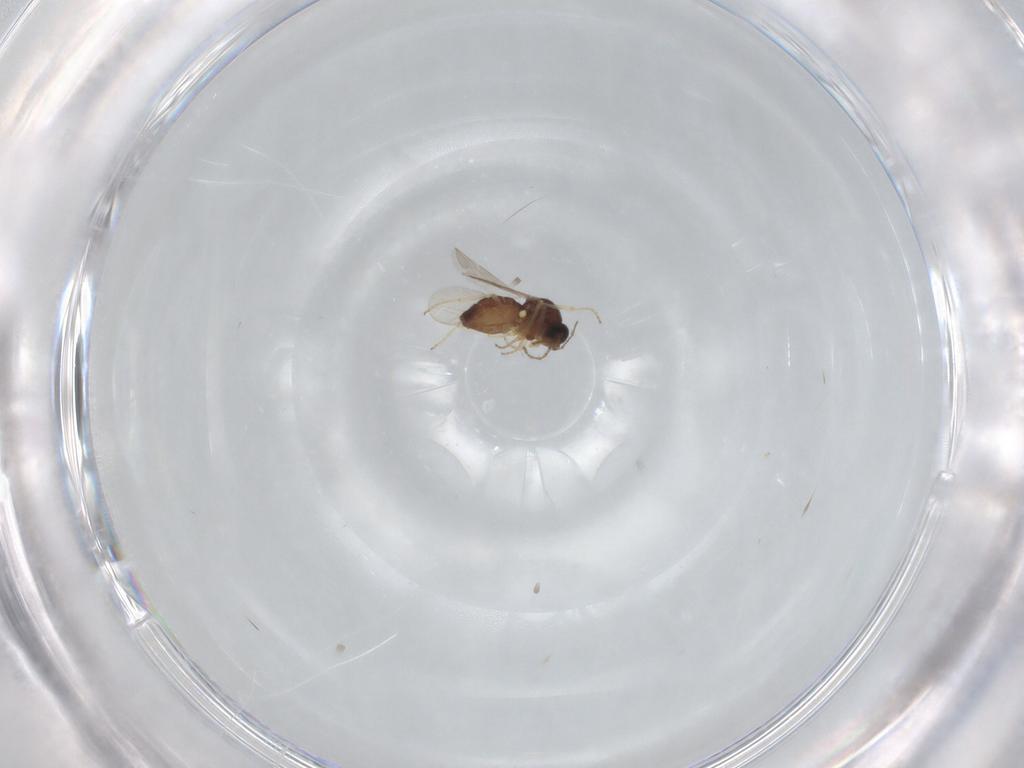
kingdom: Animalia
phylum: Arthropoda
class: Insecta
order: Diptera
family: Ceratopogonidae
